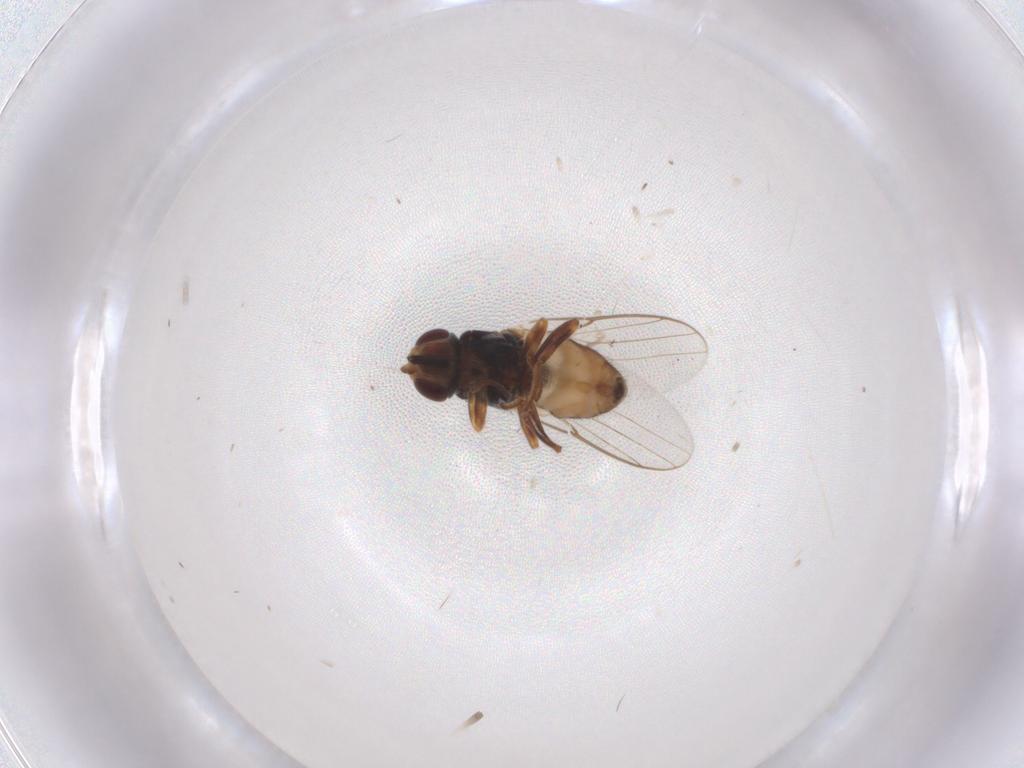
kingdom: Animalia
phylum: Arthropoda
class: Insecta
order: Diptera
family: Chloropidae
